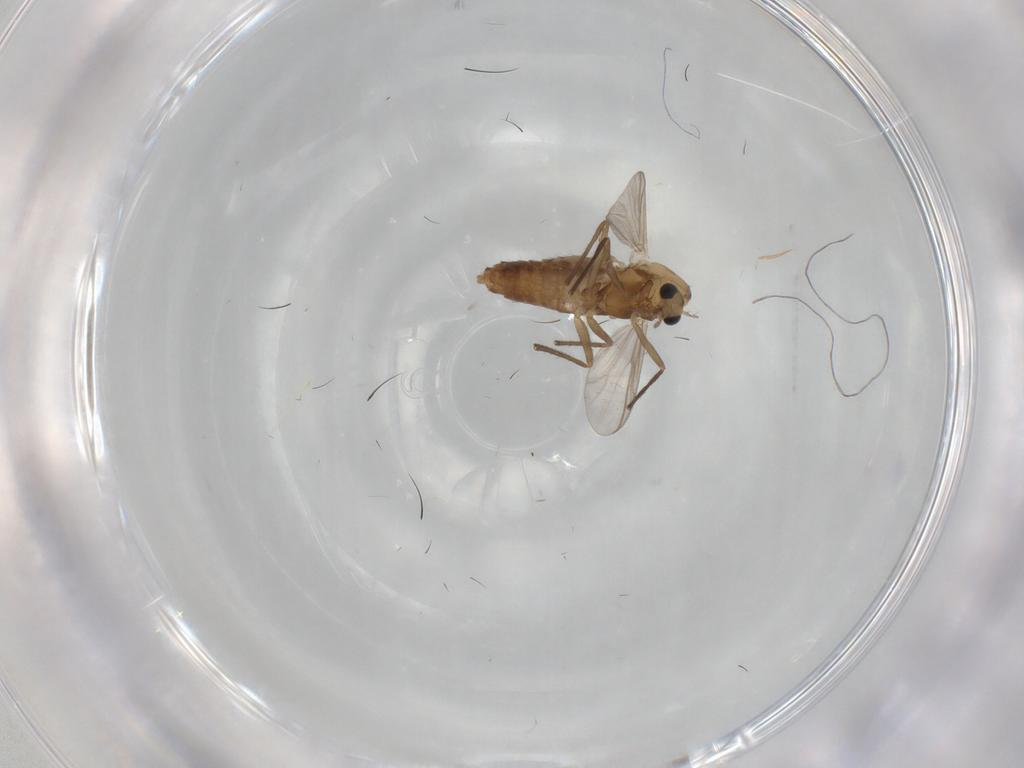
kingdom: Animalia
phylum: Arthropoda
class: Insecta
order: Diptera
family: Chironomidae
